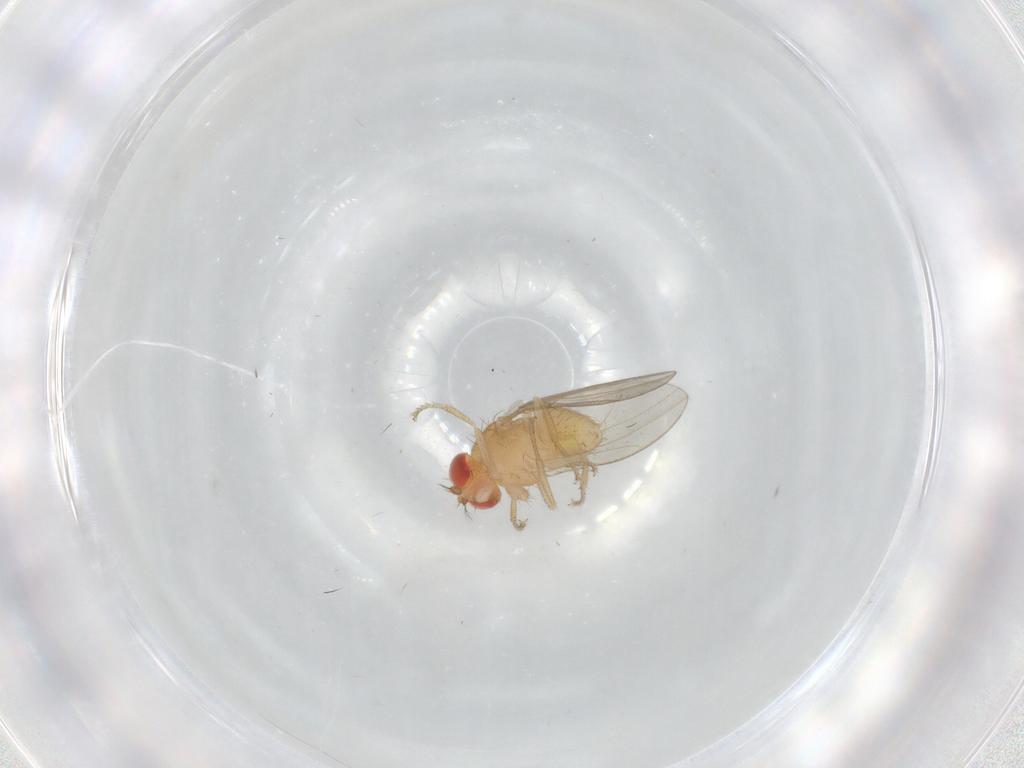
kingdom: Animalia
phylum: Arthropoda
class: Insecta
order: Diptera
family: Drosophilidae
